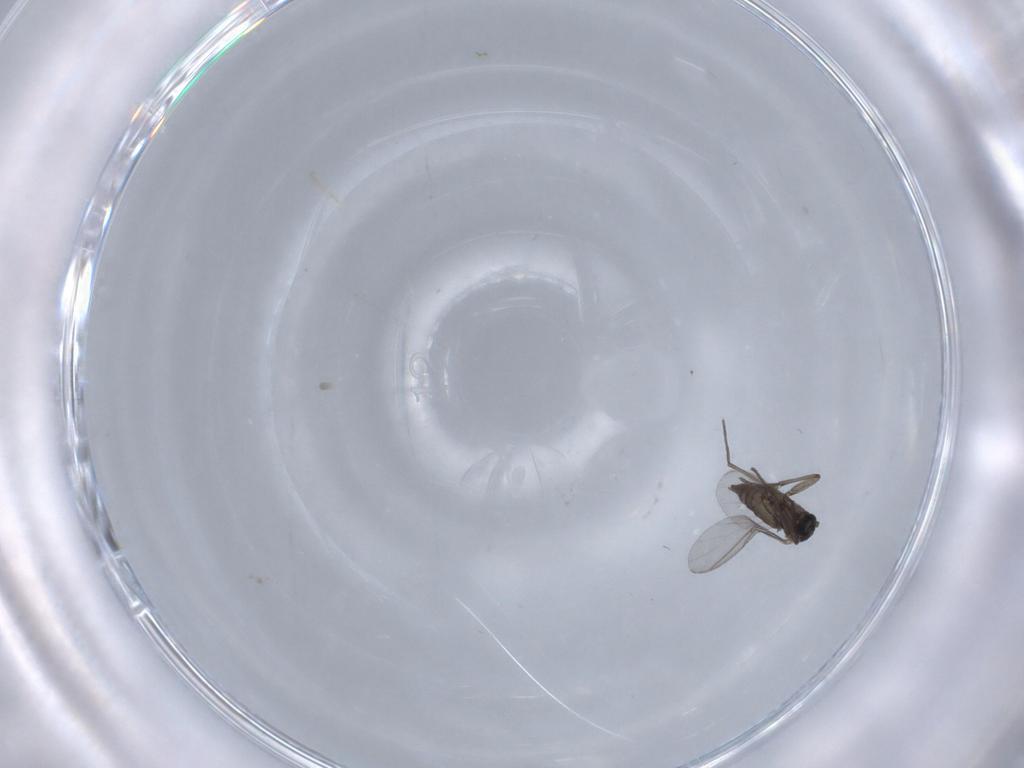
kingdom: Animalia
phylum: Arthropoda
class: Insecta
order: Diptera
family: Sciaridae
